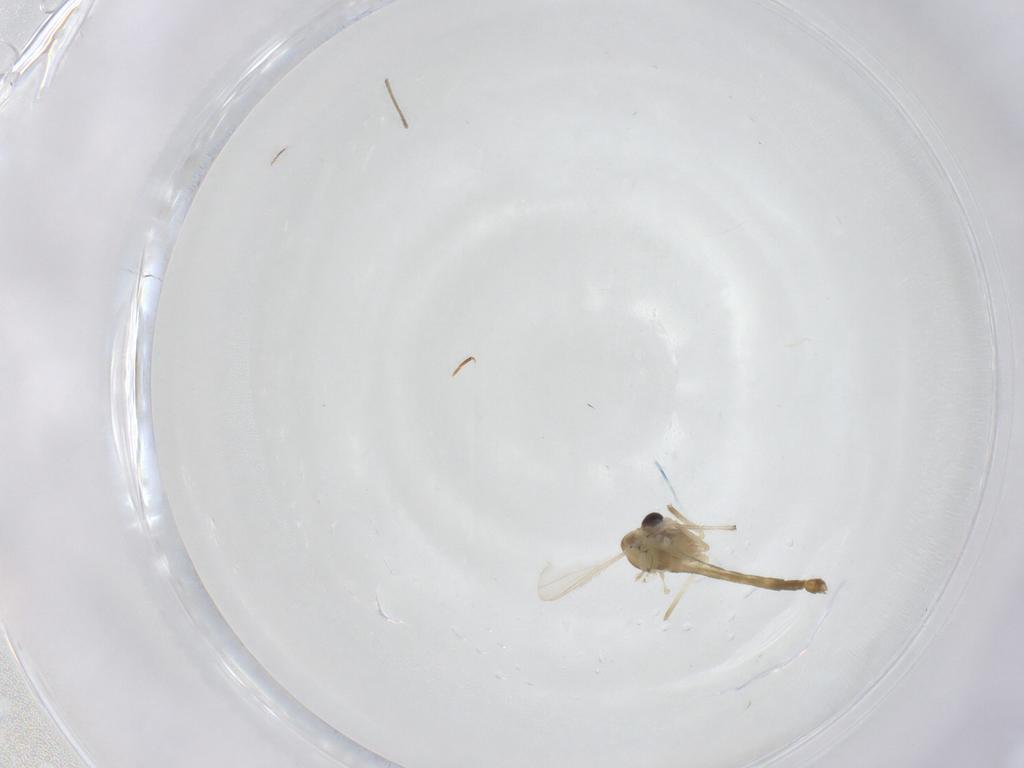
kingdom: Animalia
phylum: Arthropoda
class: Insecta
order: Diptera
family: Chironomidae
